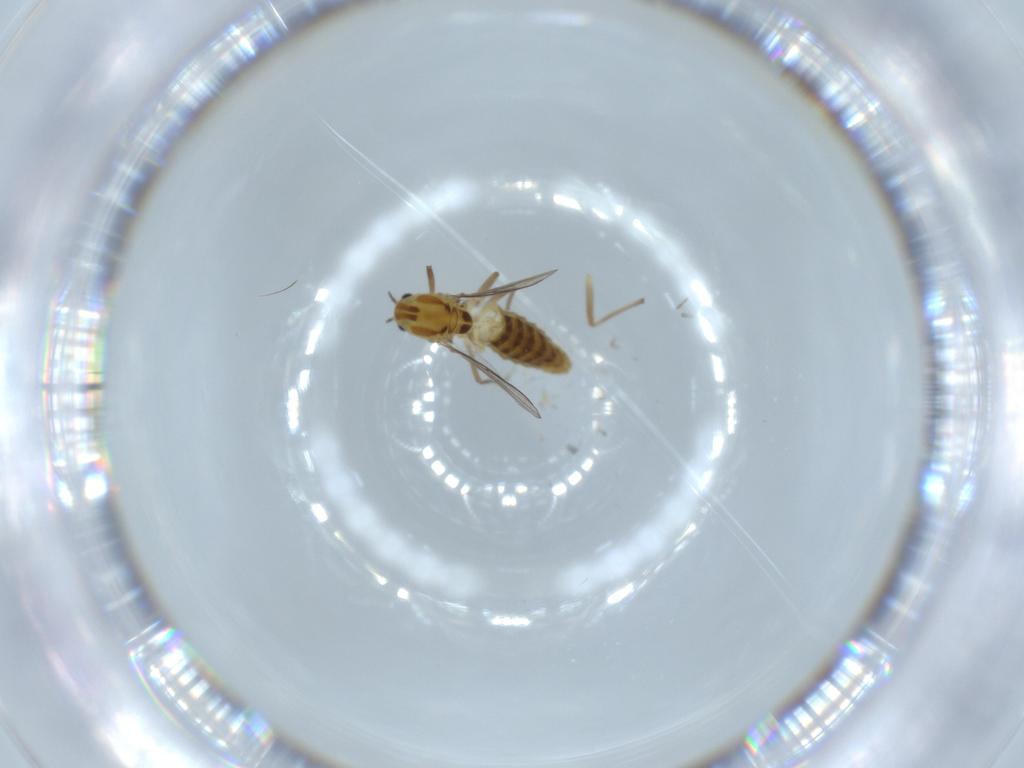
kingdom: Animalia
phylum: Arthropoda
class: Insecta
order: Diptera
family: Chironomidae
